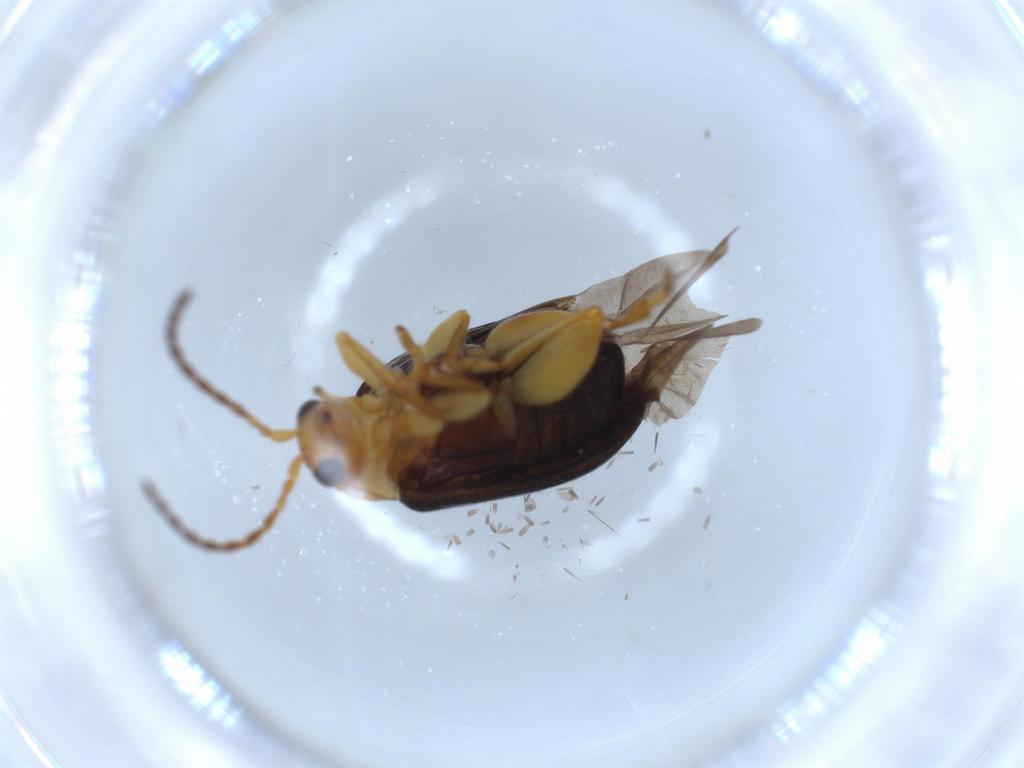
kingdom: Animalia
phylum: Arthropoda
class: Insecta
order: Coleoptera
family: Chrysomelidae
